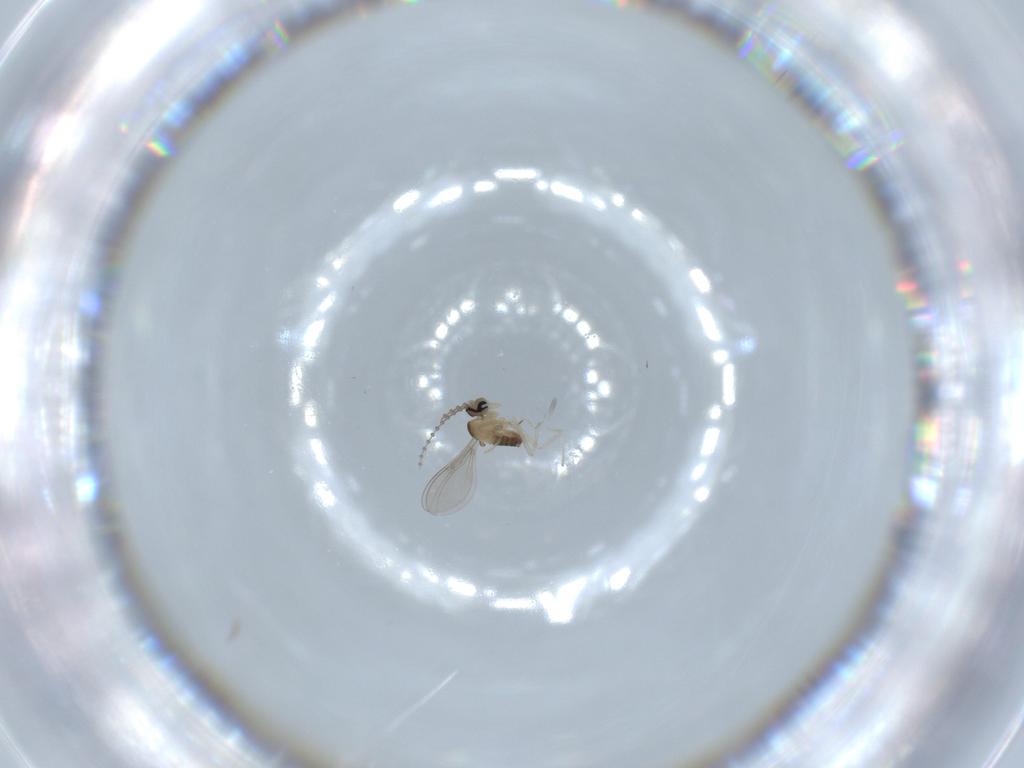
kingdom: Animalia
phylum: Arthropoda
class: Insecta
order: Diptera
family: Cecidomyiidae
